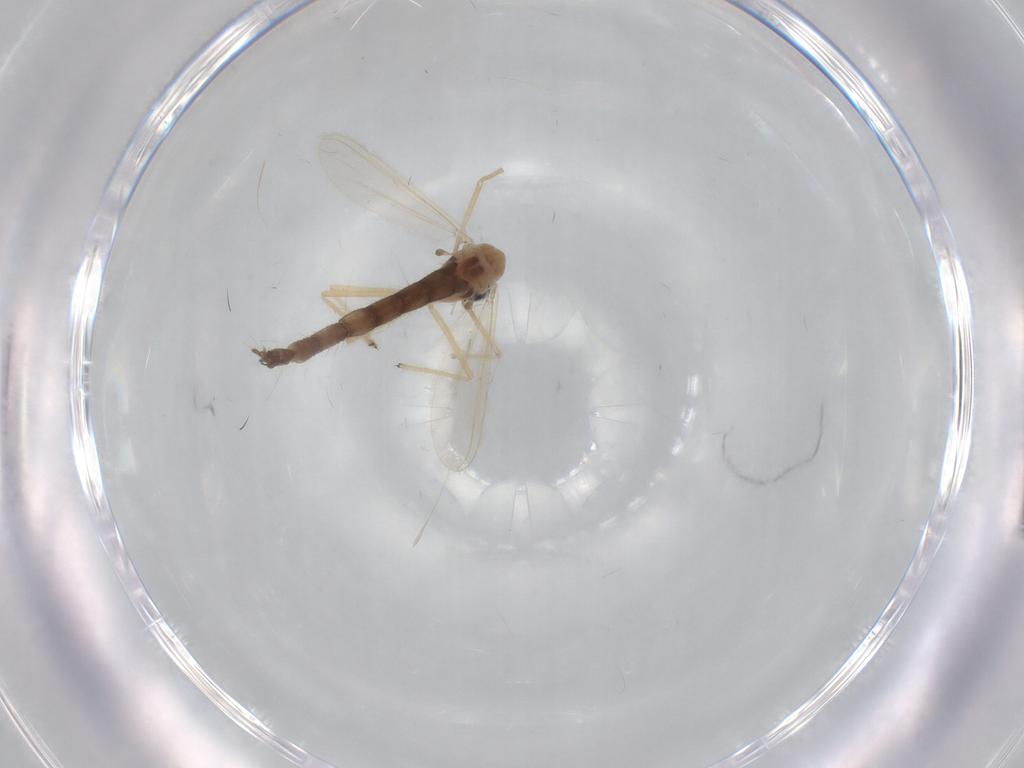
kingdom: Animalia
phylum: Arthropoda
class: Insecta
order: Diptera
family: Chironomidae
